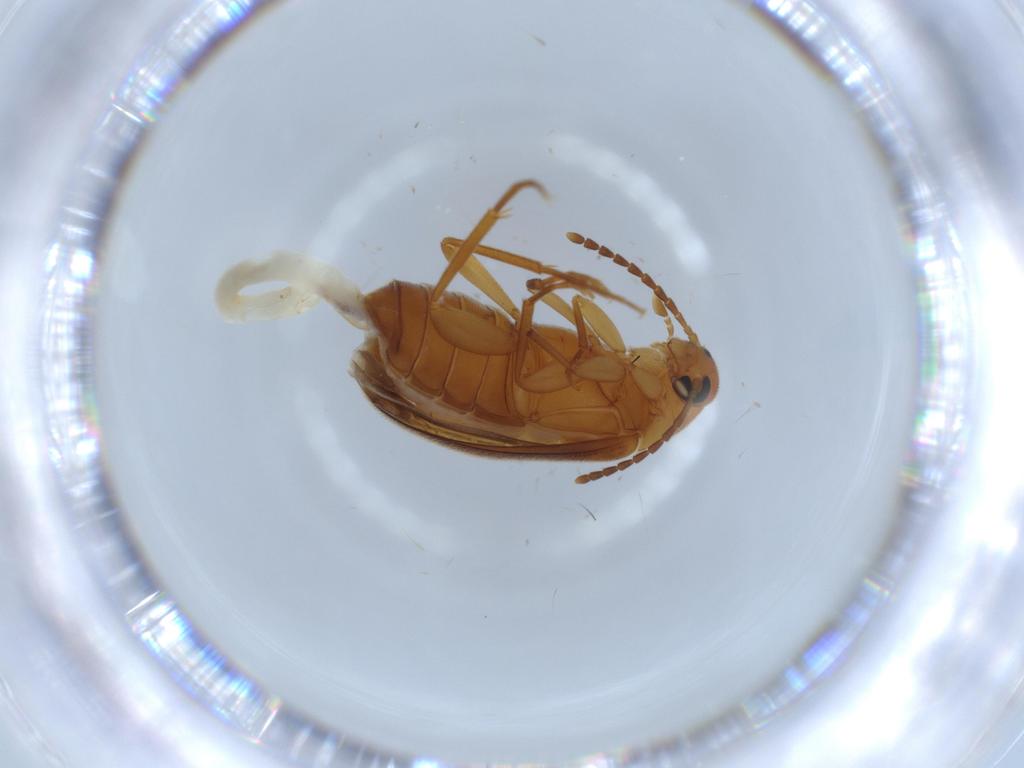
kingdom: Animalia
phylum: Arthropoda
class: Insecta
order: Coleoptera
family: Scraptiidae
